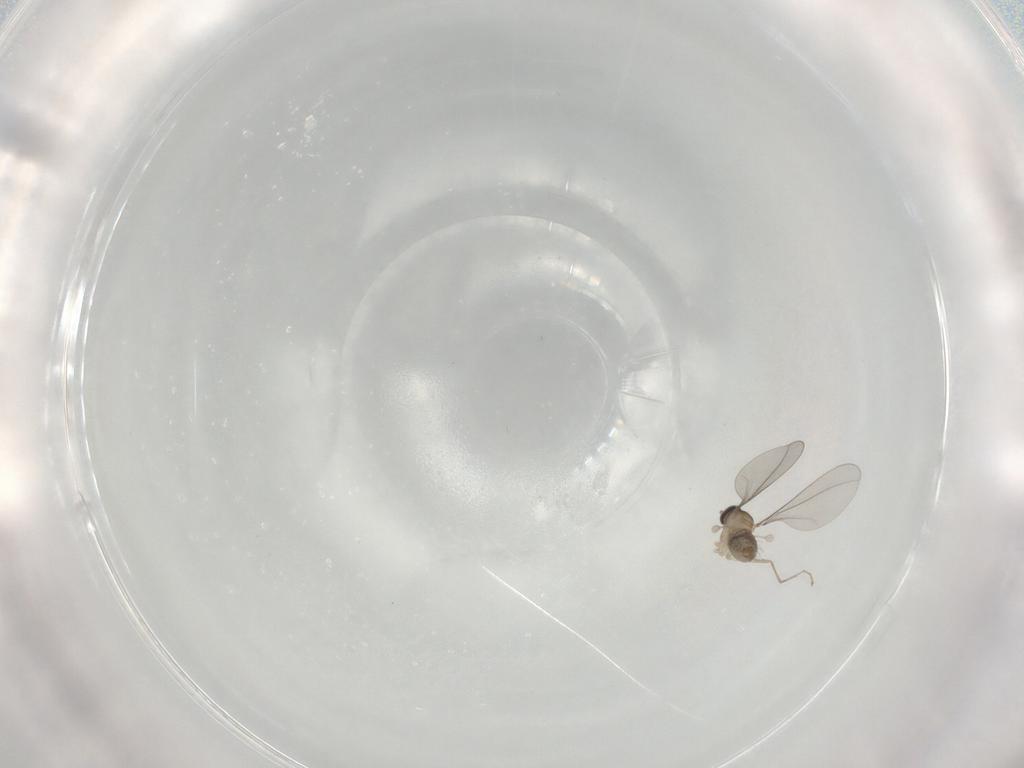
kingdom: Animalia
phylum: Arthropoda
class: Insecta
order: Diptera
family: Cecidomyiidae
